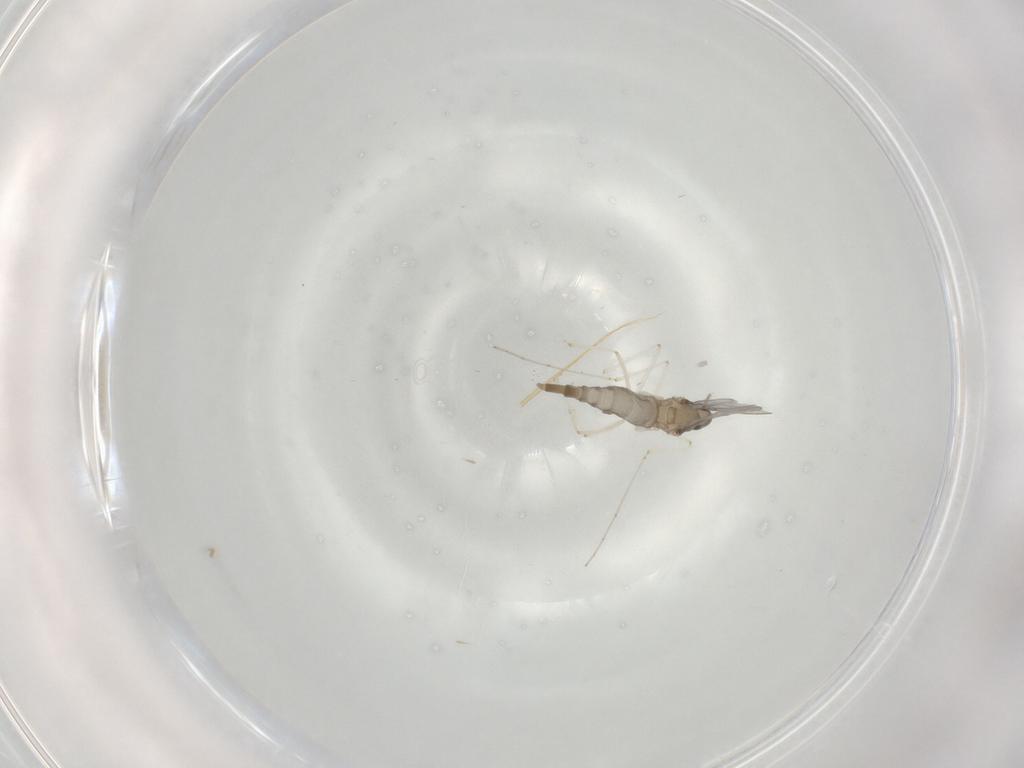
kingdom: Animalia
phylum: Arthropoda
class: Insecta
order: Diptera
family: Cecidomyiidae
